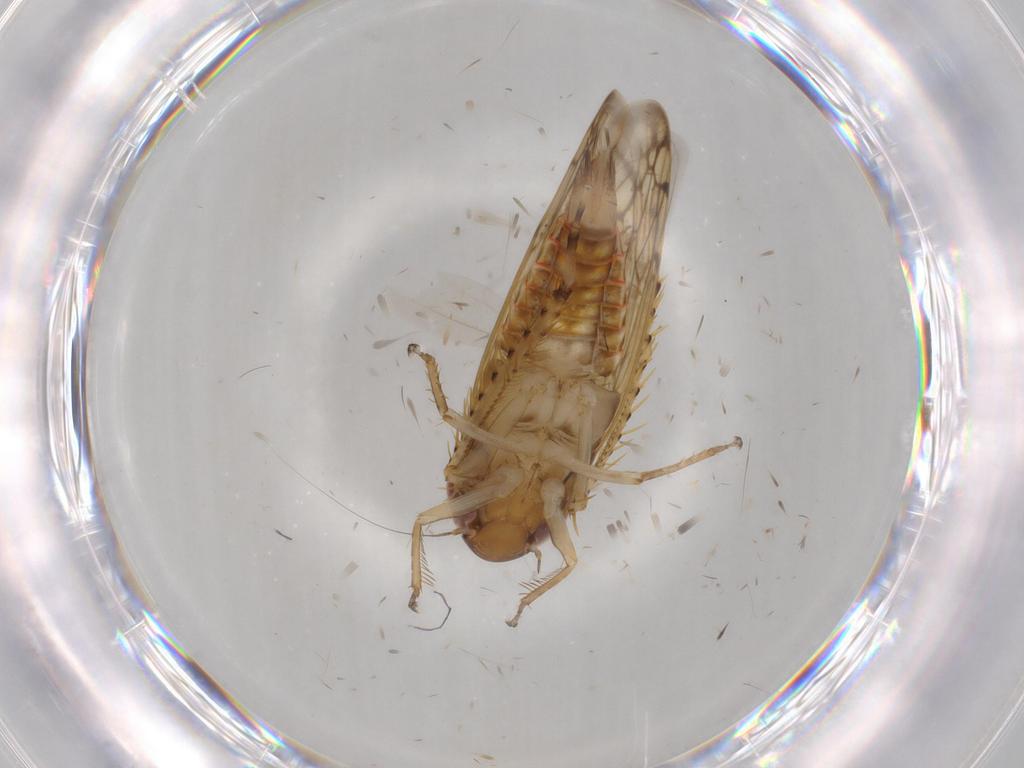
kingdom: Animalia
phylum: Arthropoda
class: Insecta
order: Hemiptera
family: Cicadellidae
